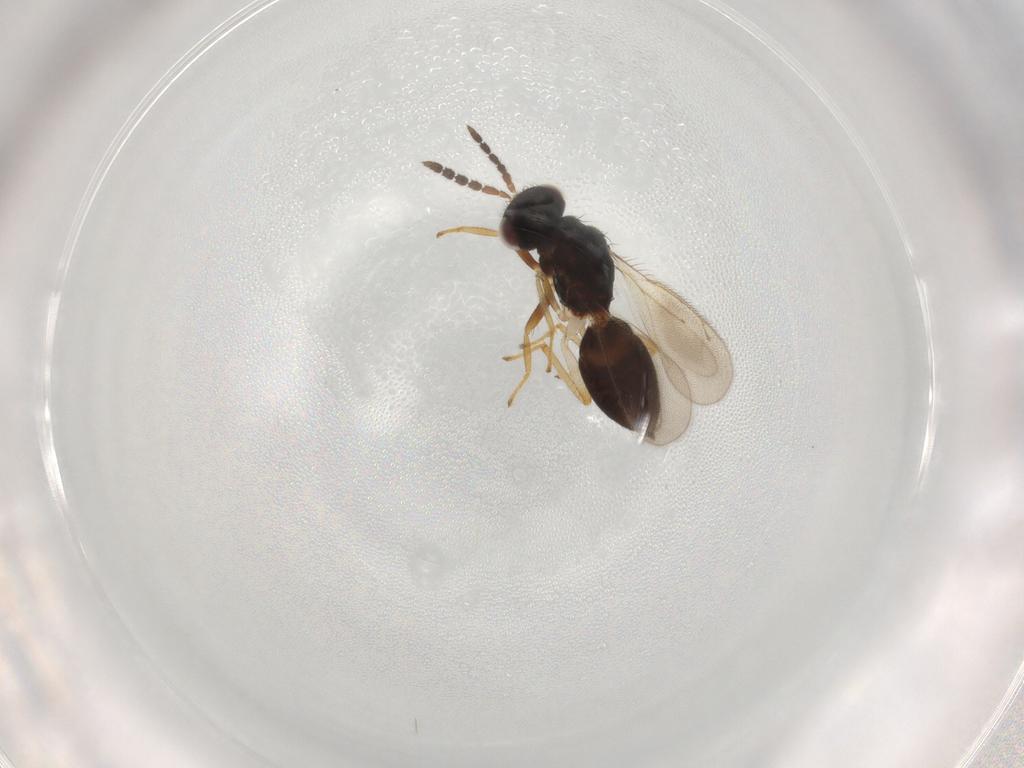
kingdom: Animalia
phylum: Arthropoda
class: Insecta
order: Hymenoptera
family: Eulophidae
